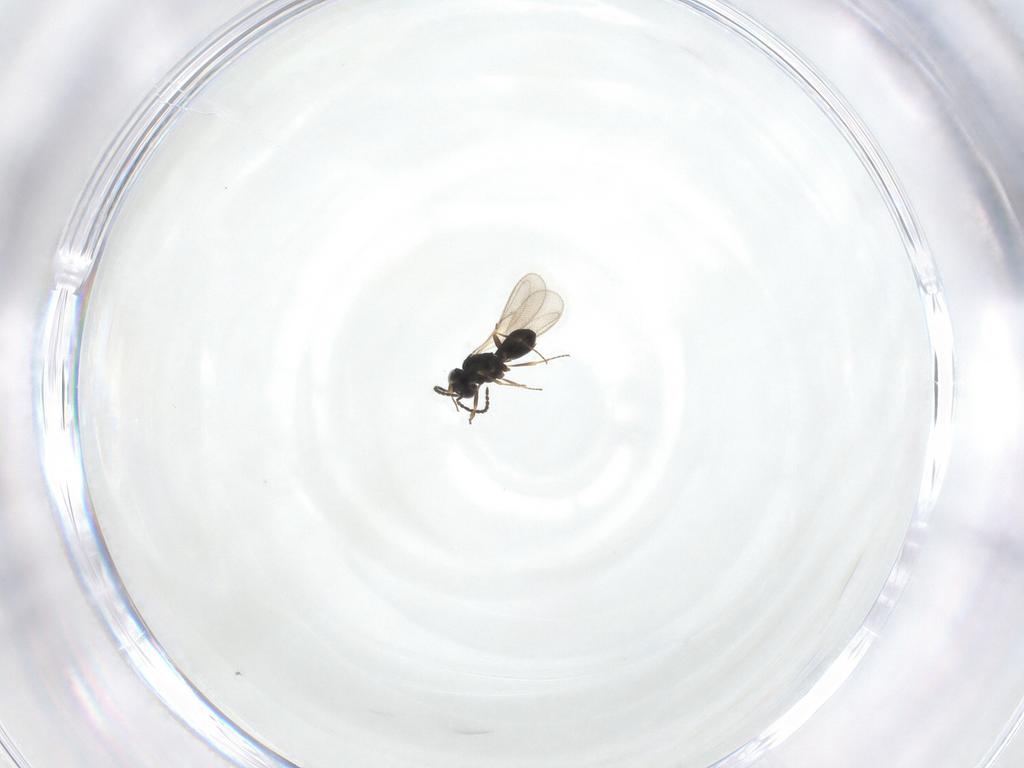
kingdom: Animalia
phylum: Arthropoda
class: Insecta
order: Hymenoptera
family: Scelionidae
